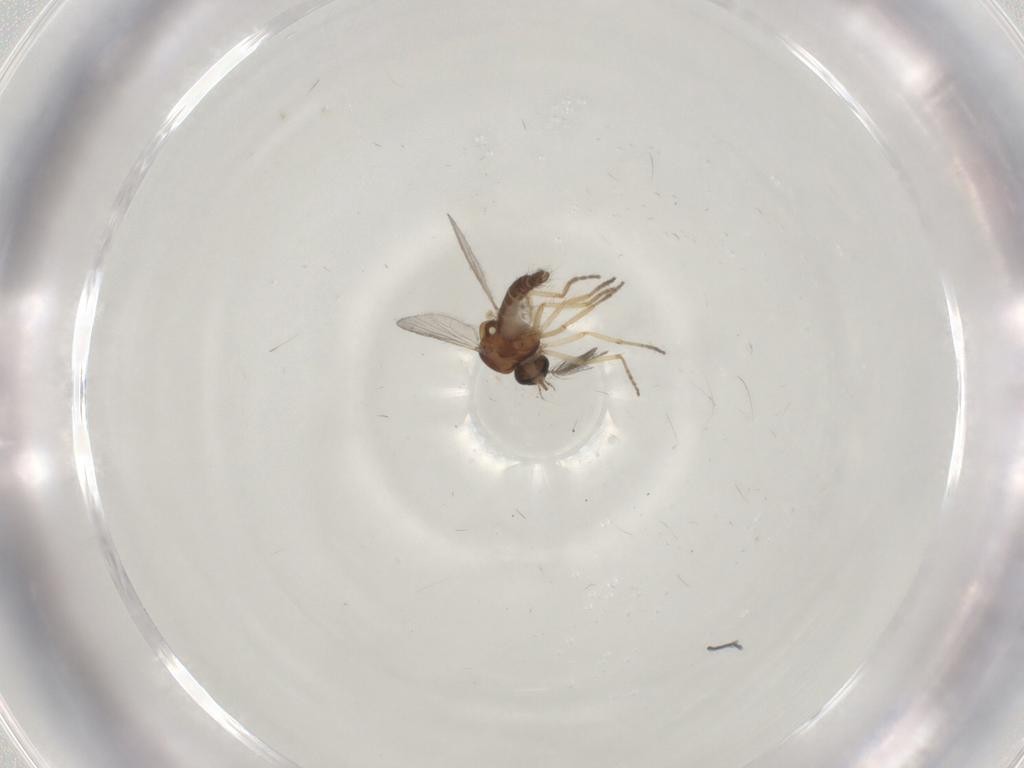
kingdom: Animalia
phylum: Arthropoda
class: Insecta
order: Diptera
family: Ceratopogonidae
